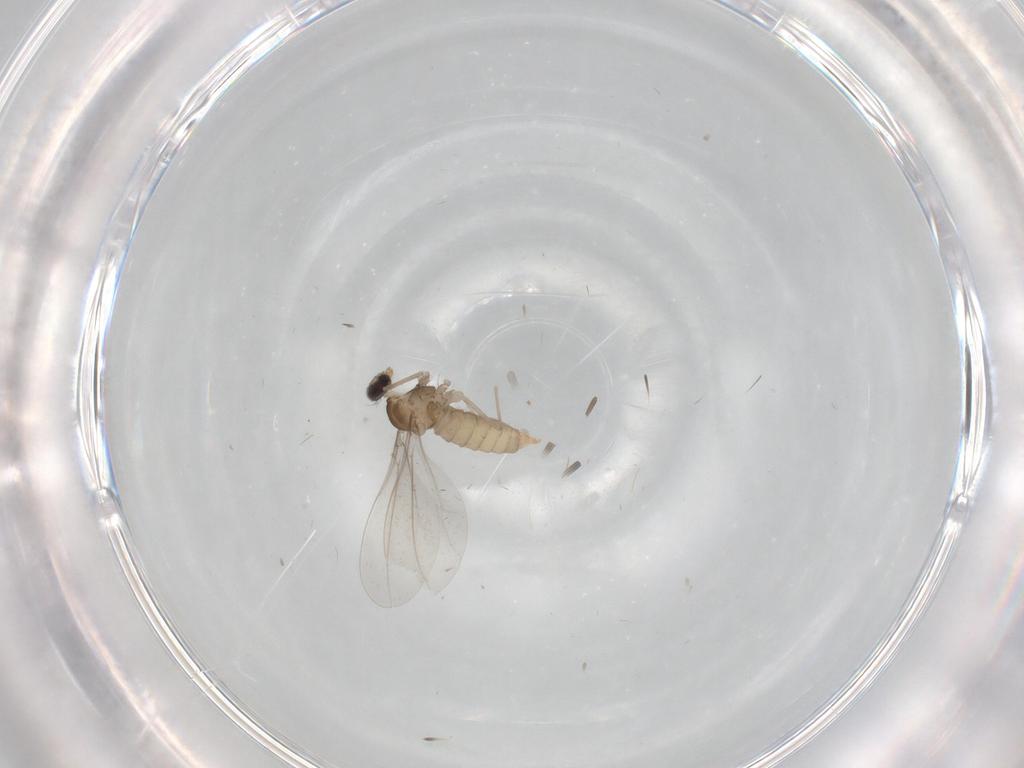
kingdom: Animalia
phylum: Arthropoda
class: Insecta
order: Diptera
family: Cecidomyiidae
